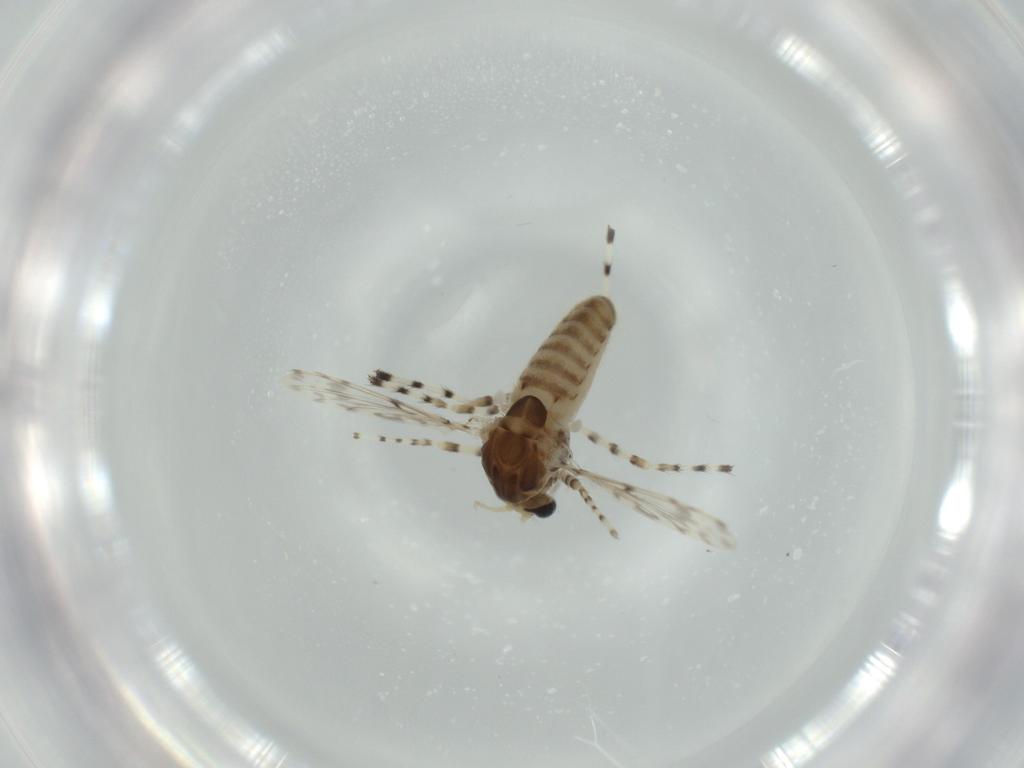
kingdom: Animalia
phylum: Arthropoda
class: Insecta
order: Diptera
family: Chironomidae
